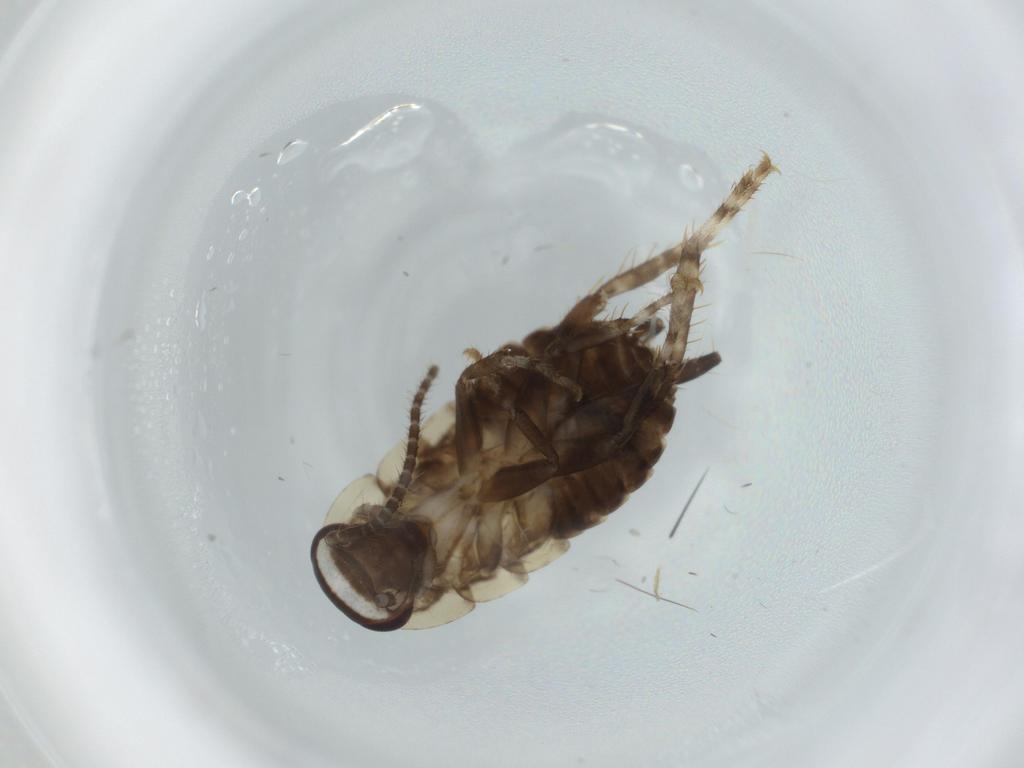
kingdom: Animalia
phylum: Arthropoda
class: Insecta
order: Blattodea
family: Ectobiidae
